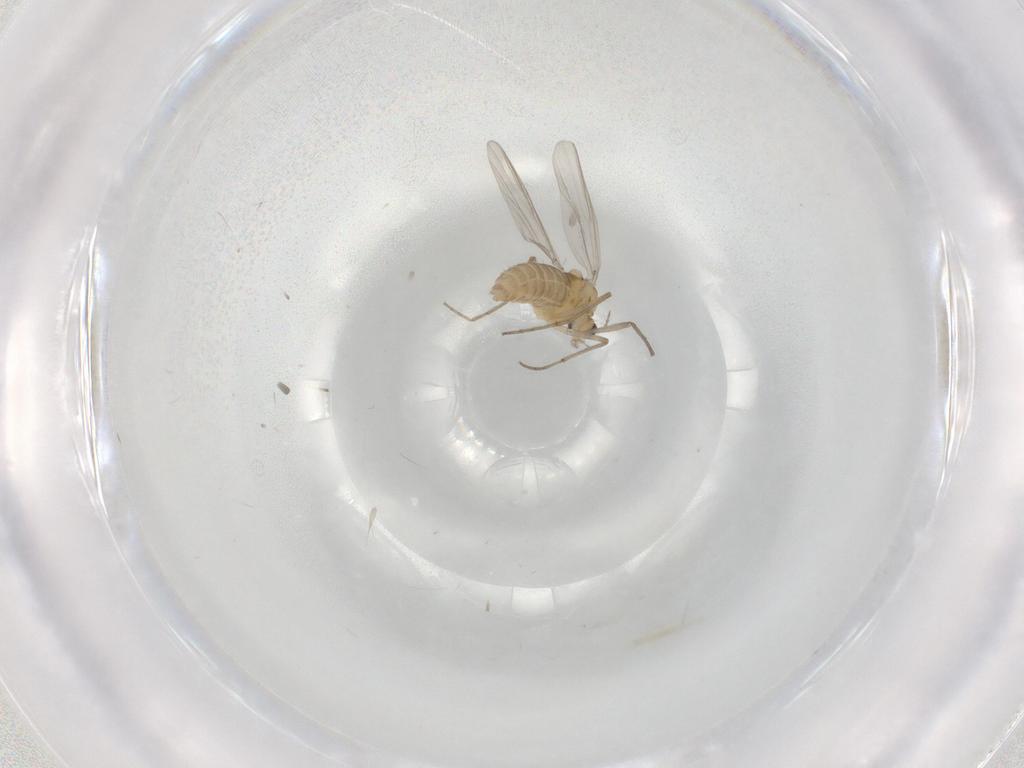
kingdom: Animalia
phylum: Arthropoda
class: Insecta
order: Diptera
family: Chironomidae
